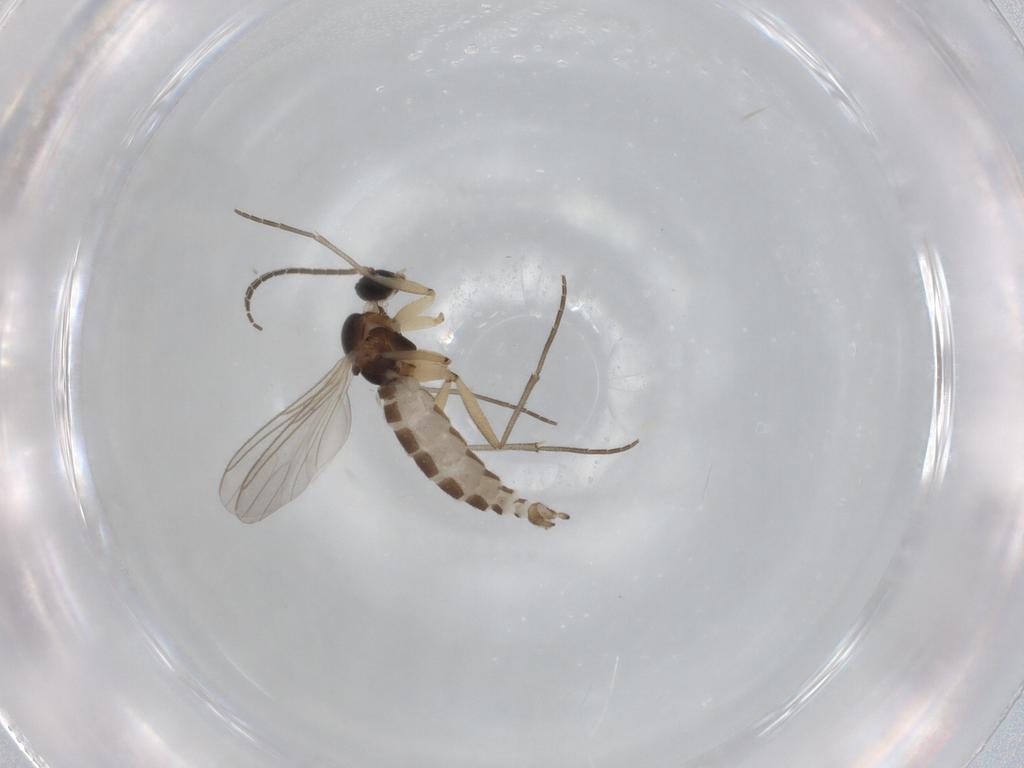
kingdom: Animalia
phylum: Arthropoda
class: Insecta
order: Diptera
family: Sciaridae
